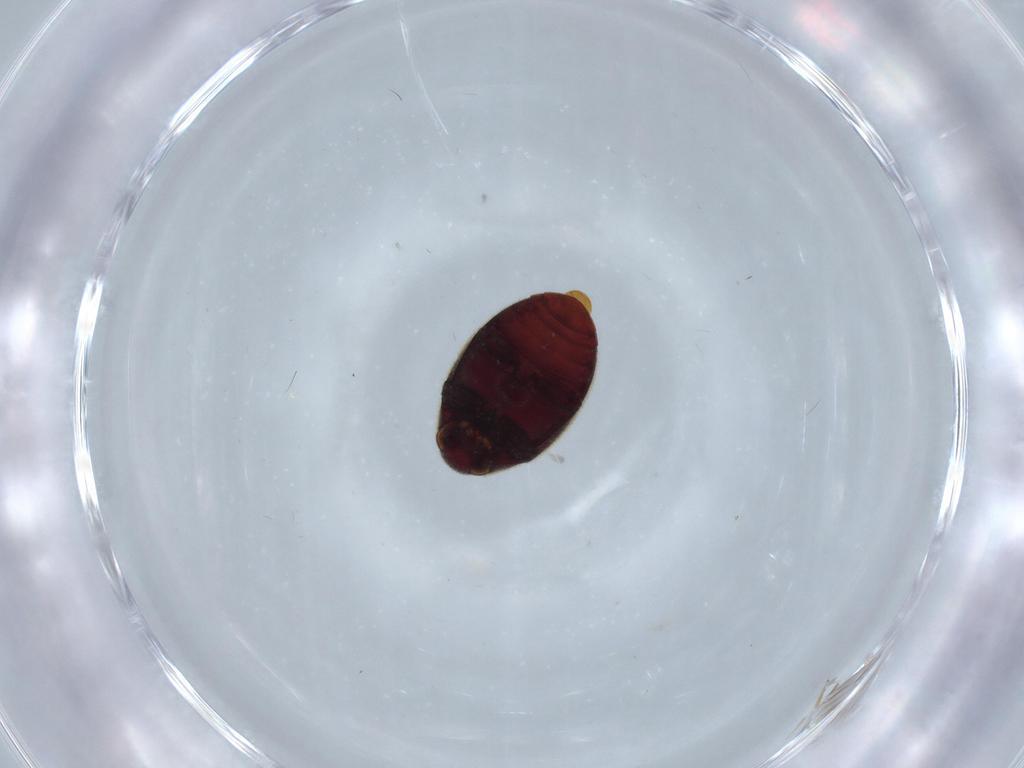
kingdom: Animalia
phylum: Arthropoda
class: Insecta
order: Coleoptera
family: Ptinidae
